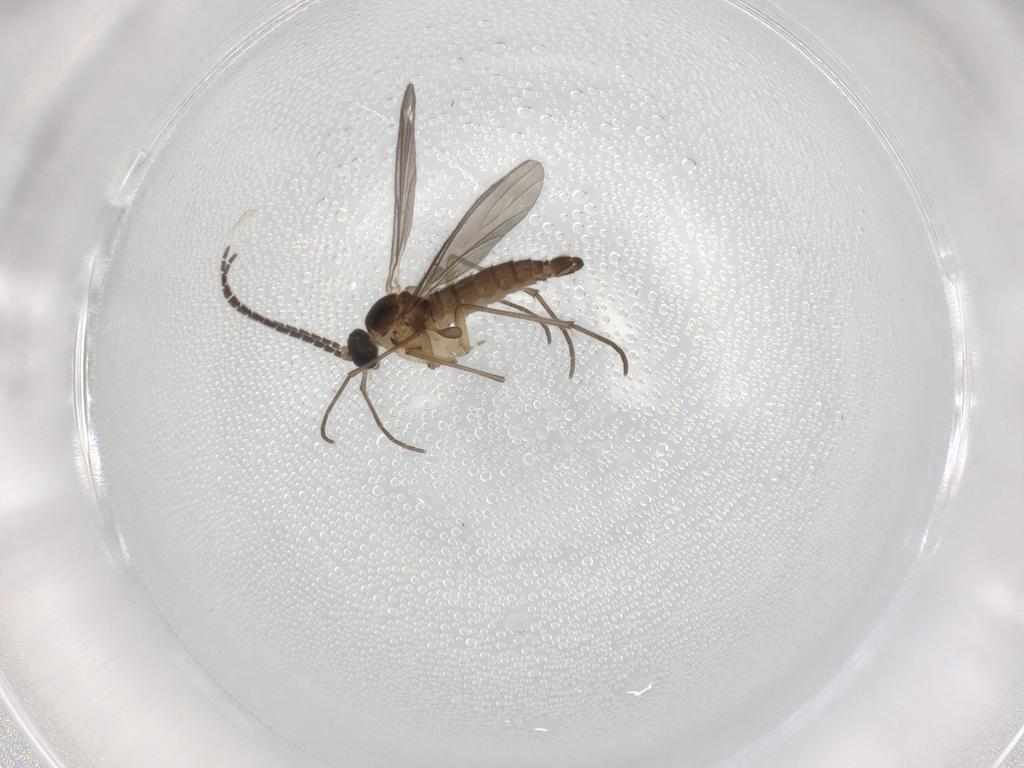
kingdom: Animalia
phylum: Arthropoda
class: Insecta
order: Diptera
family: Sciaridae
